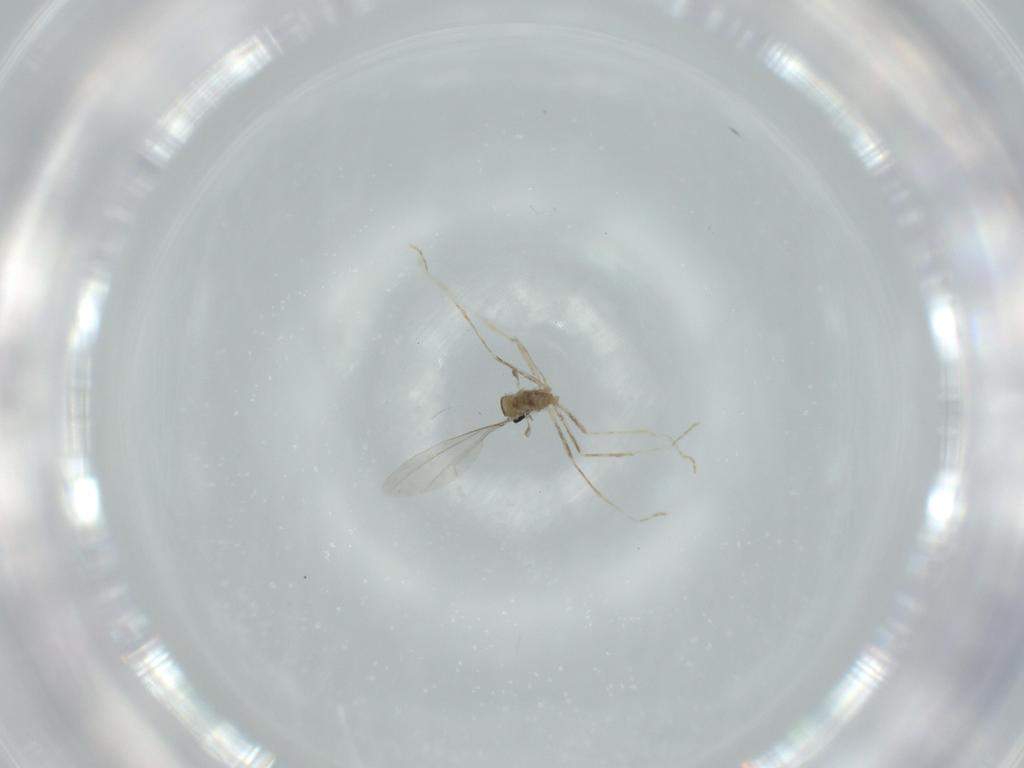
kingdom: Animalia
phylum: Arthropoda
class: Insecta
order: Diptera
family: Cecidomyiidae
